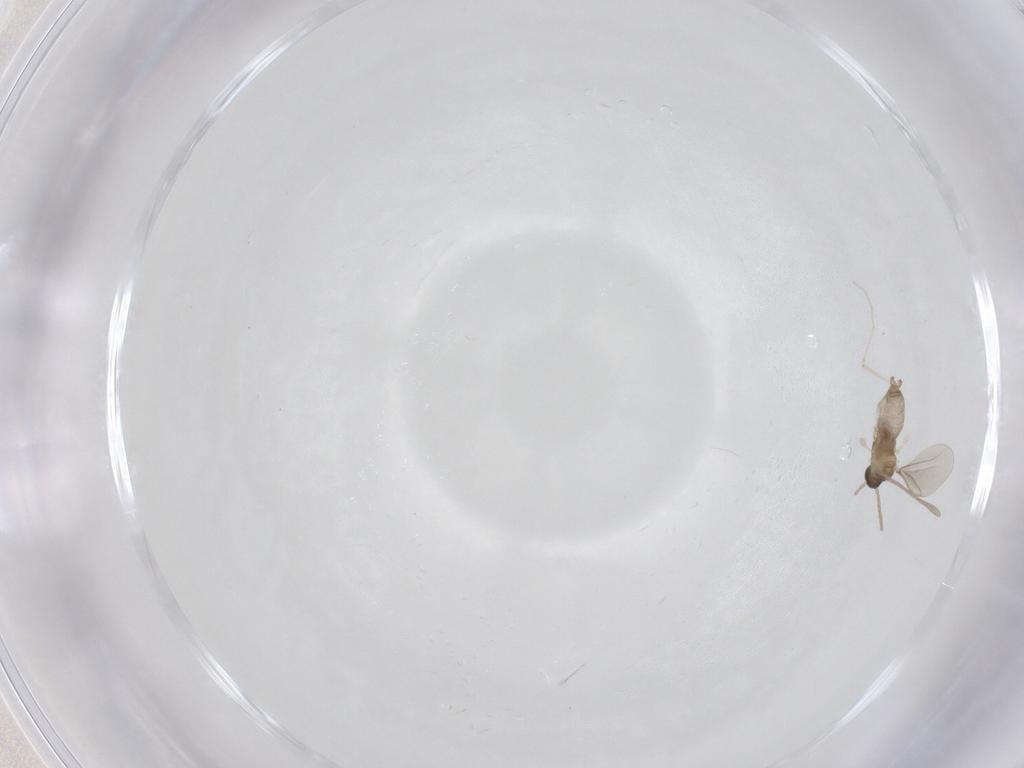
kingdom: Animalia
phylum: Arthropoda
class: Insecta
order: Diptera
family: Cecidomyiidae
